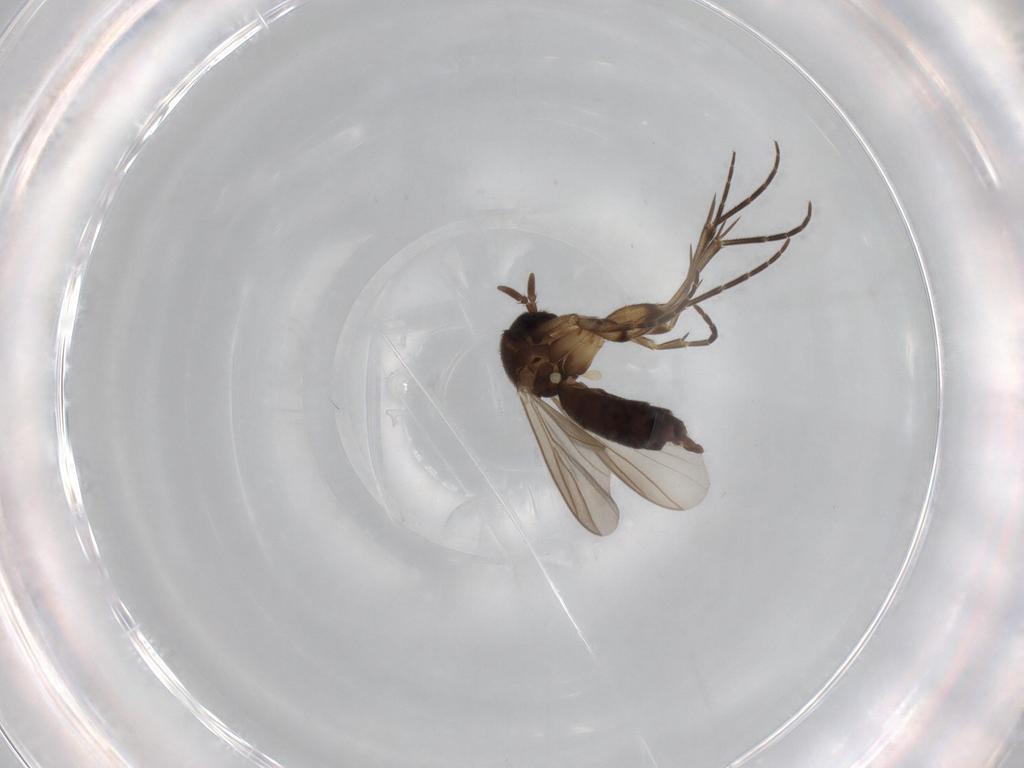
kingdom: Animalia
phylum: Arthropoda
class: Insecta
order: Diptera
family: Mycetophilidae
